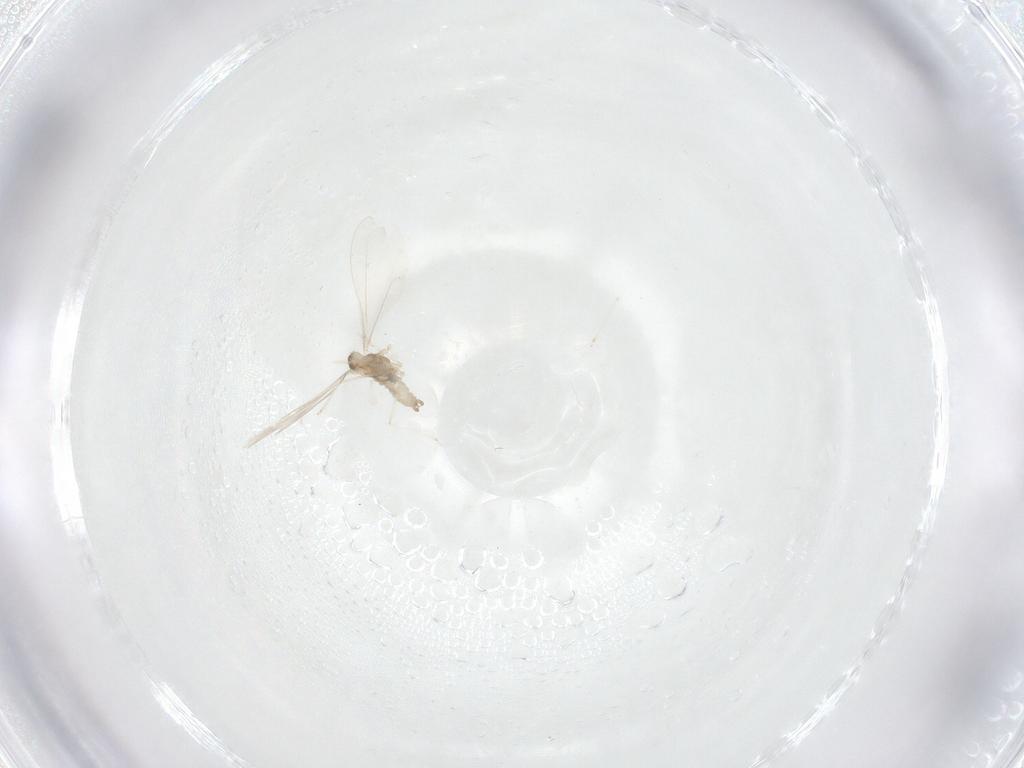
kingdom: Animalia
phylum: Arthropoda
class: Insecta
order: Diptera
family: Cecidomyiidae
